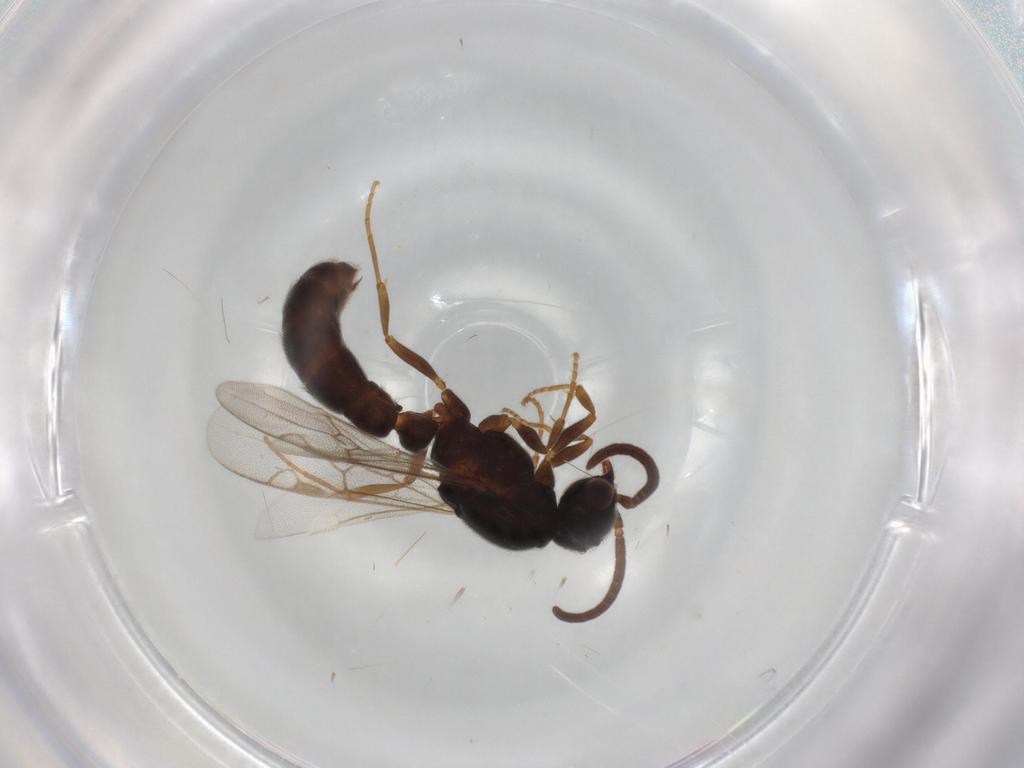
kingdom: Animalia
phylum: Arthropoda
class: Insecta
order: Hymenoptera
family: Formicidae
